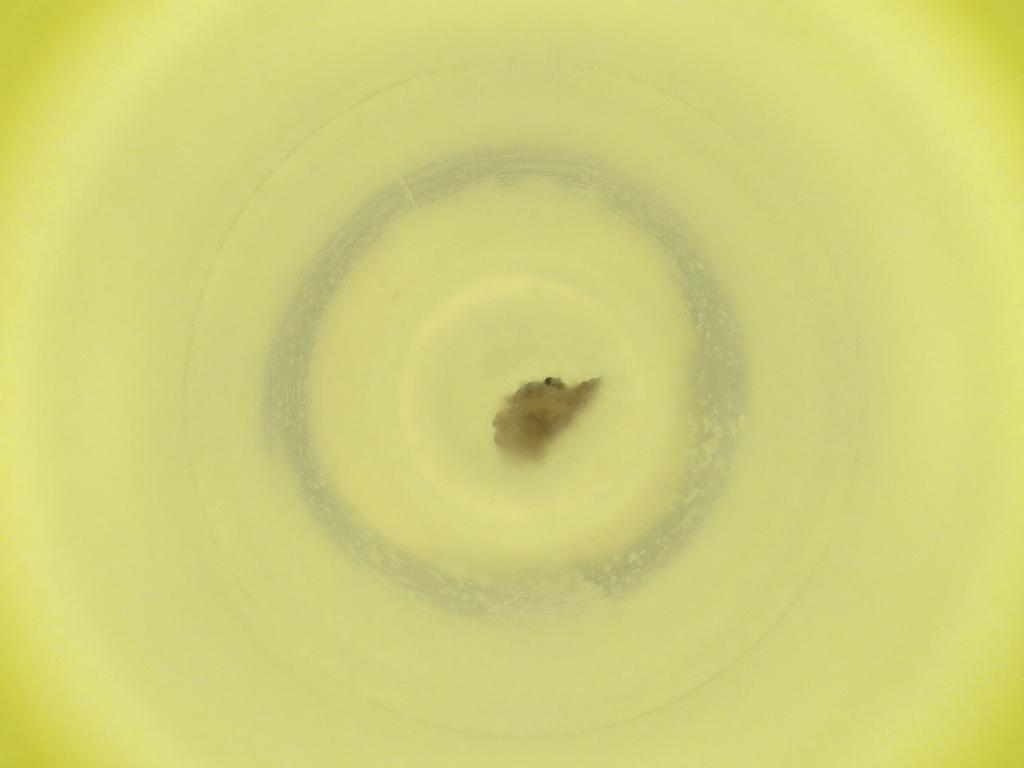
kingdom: Animalia
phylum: Arthropoda
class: Insecta
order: Diptera
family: Cecidomyiidae
